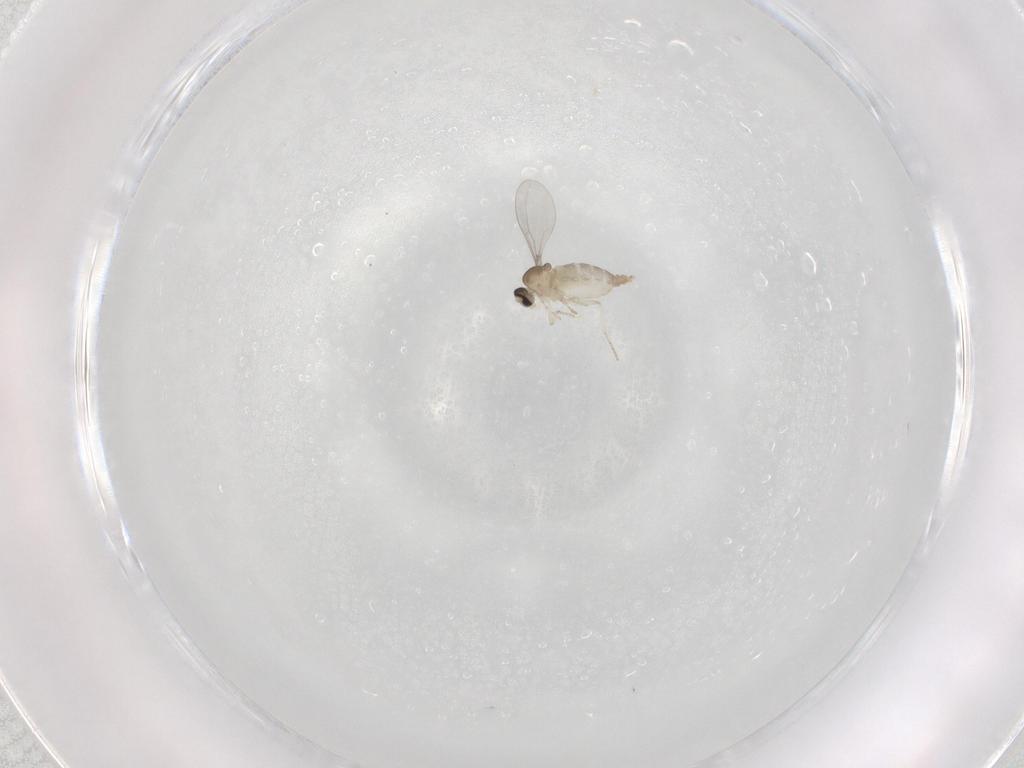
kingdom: Animalia
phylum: Arthropoda
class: Insecta
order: Diptera
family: Cecidomyiidae
